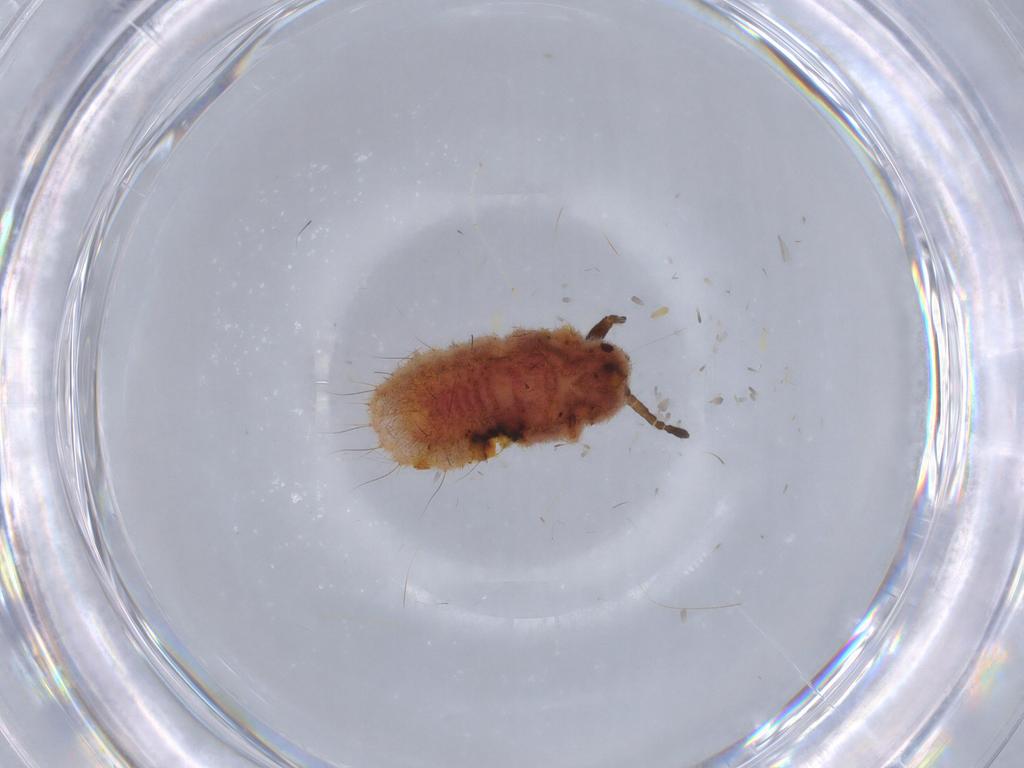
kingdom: Animalia
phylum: Arthropoda
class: Insecta
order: Hemiptera
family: Monophlebidae
